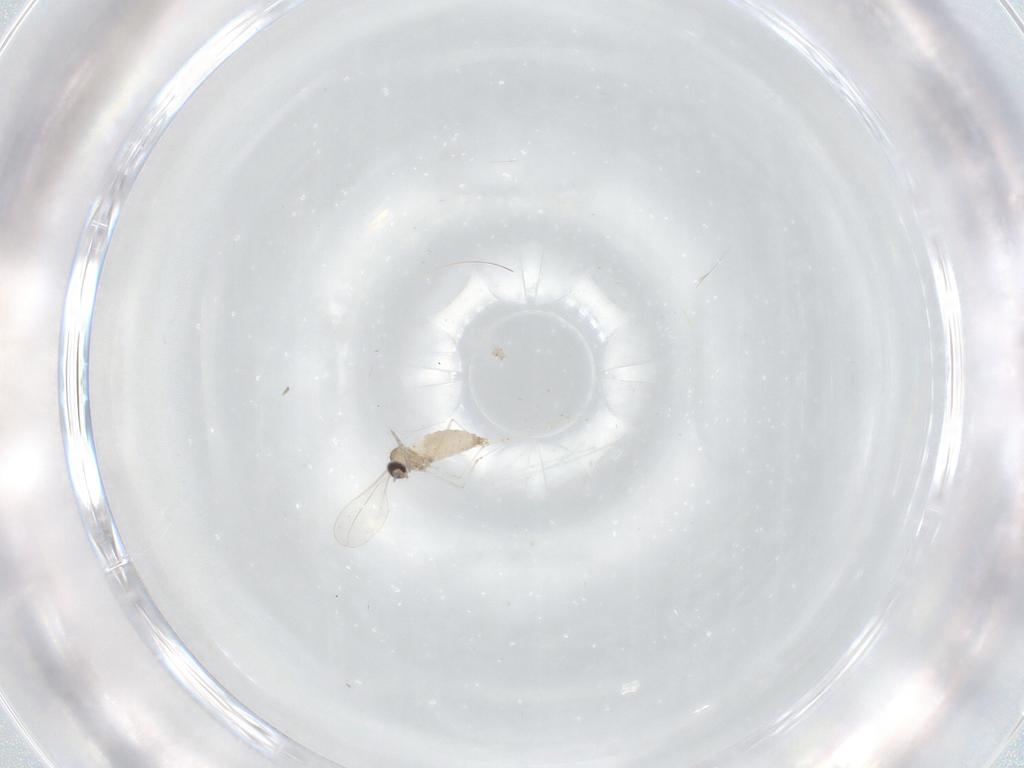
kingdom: Animalia
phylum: Arthropoda
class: Insecta
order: Diptera
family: Cecidomyiidae
